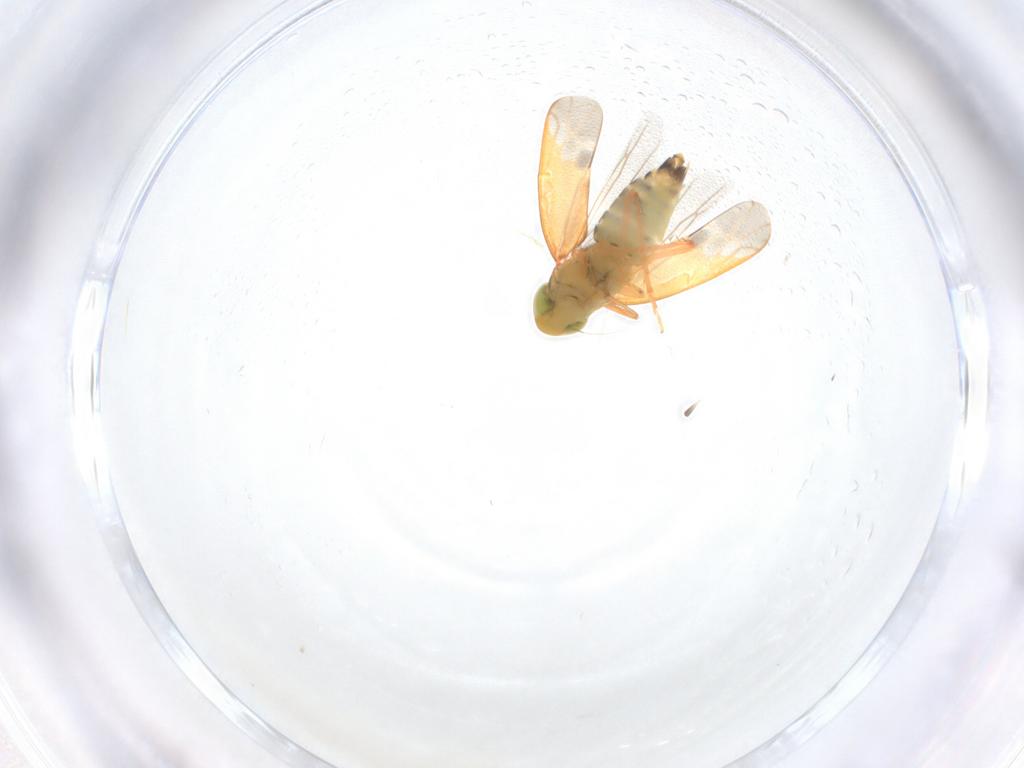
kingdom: Animalia
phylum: Arthropoda
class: Insecta
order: Hemiptera
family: Cicadellidae
